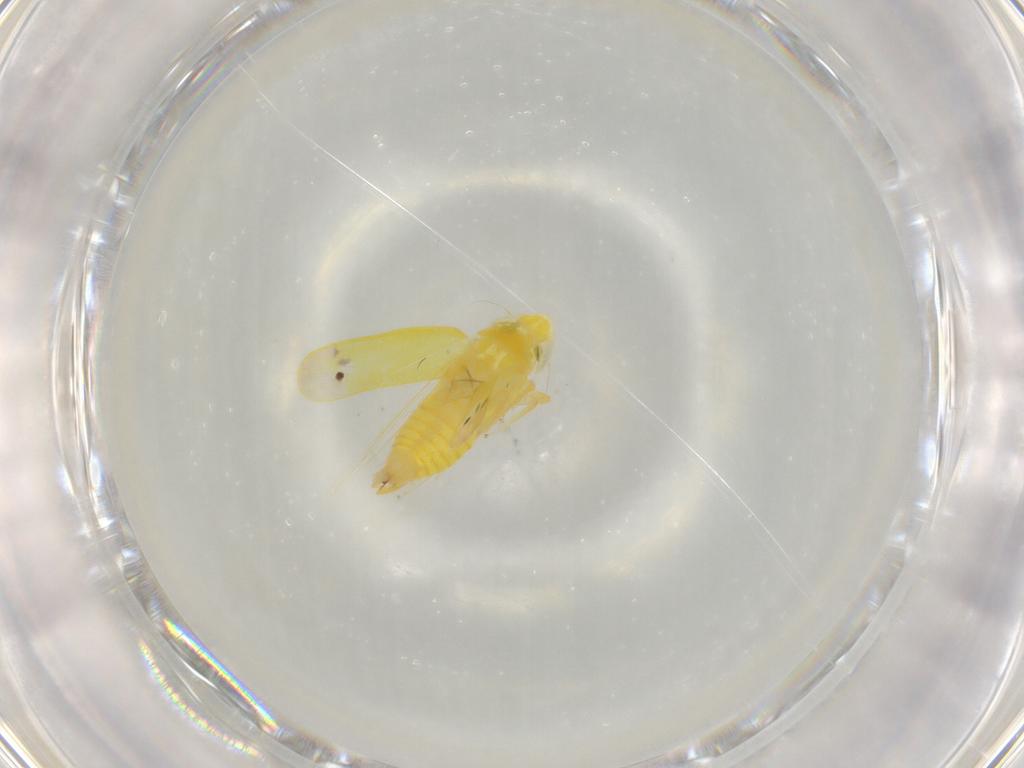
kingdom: Animalia
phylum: Arthropoda
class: Insecta
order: Hemiptera
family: Cicadellidae
